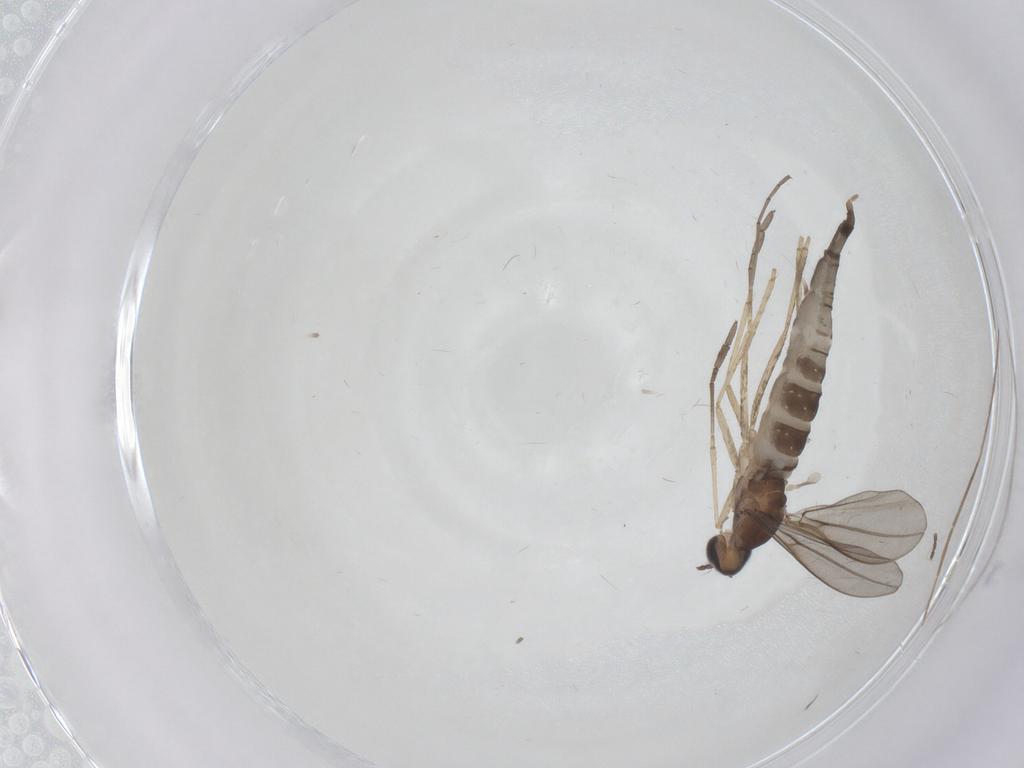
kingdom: Animalia
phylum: Arthropoda
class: Insecta
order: Diptera
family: Cecidomyiidae
